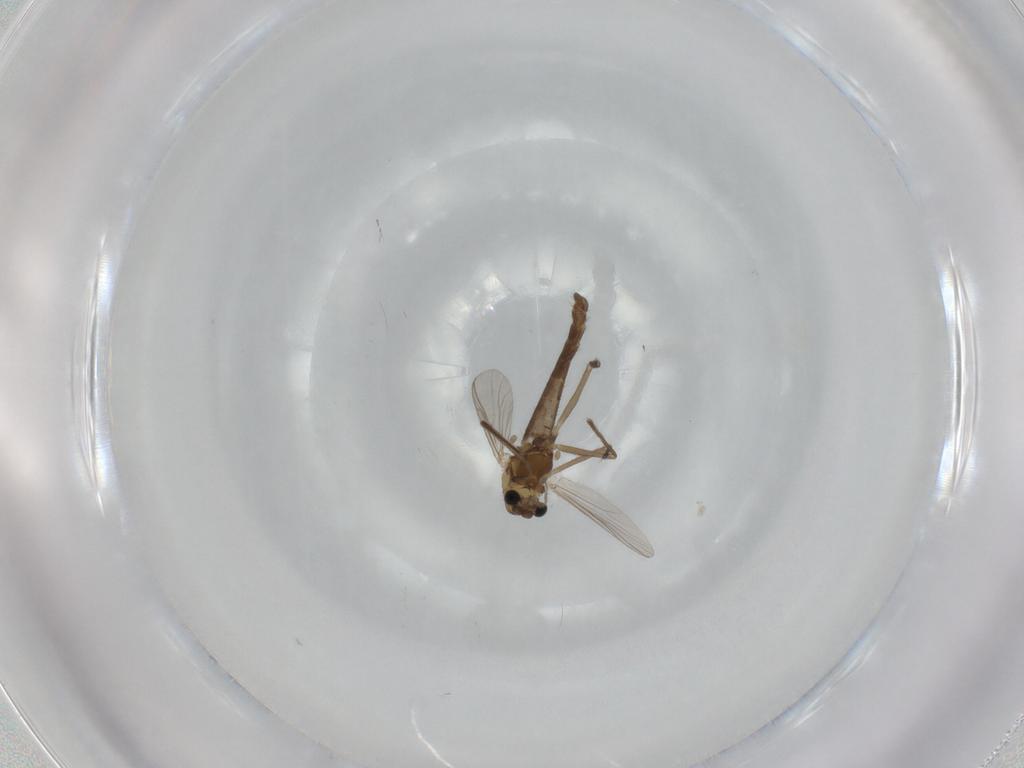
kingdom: Animalia
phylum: Arthropoda
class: Insecta
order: Diptera
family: Chironomidae
